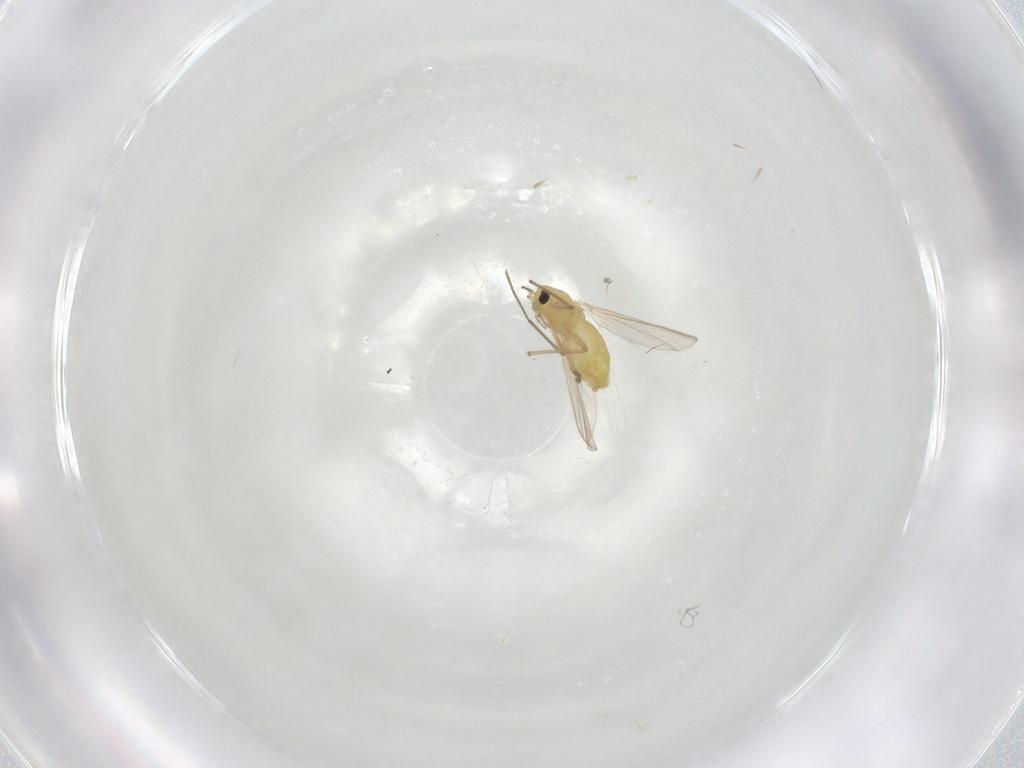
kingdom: Animalia
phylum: Arthropoda
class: Insecta
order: Diptera
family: Chironomidae
